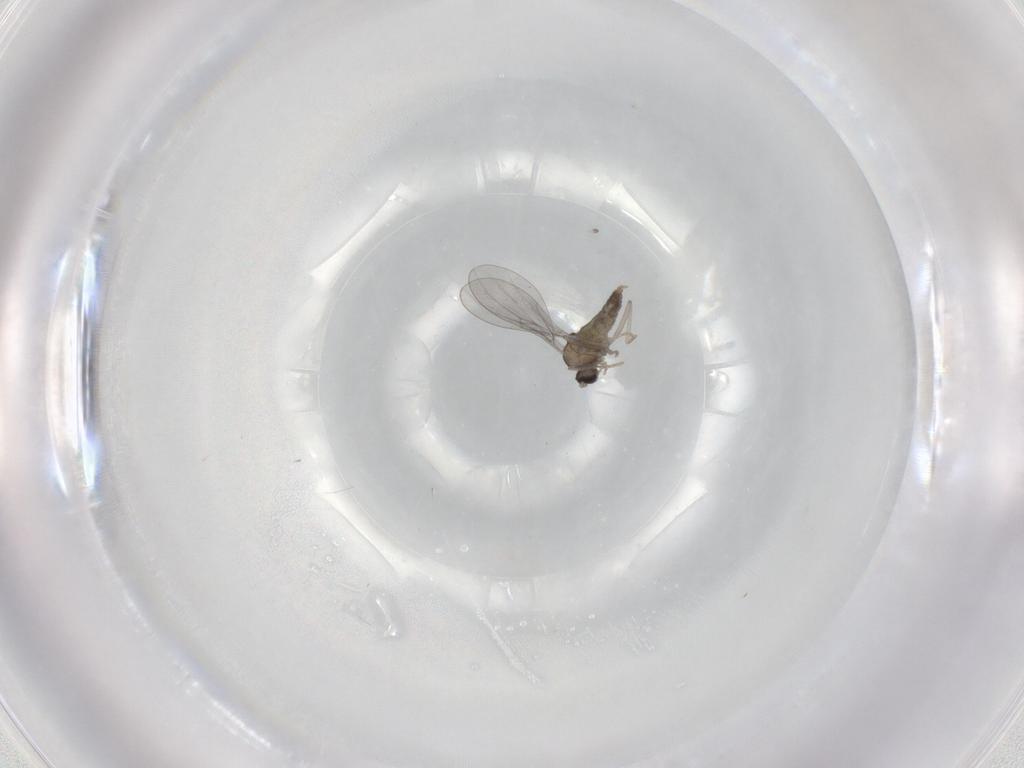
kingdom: Animalia
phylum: Arthropoda
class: Insecta
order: Diptera
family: Cecidomyiidae
